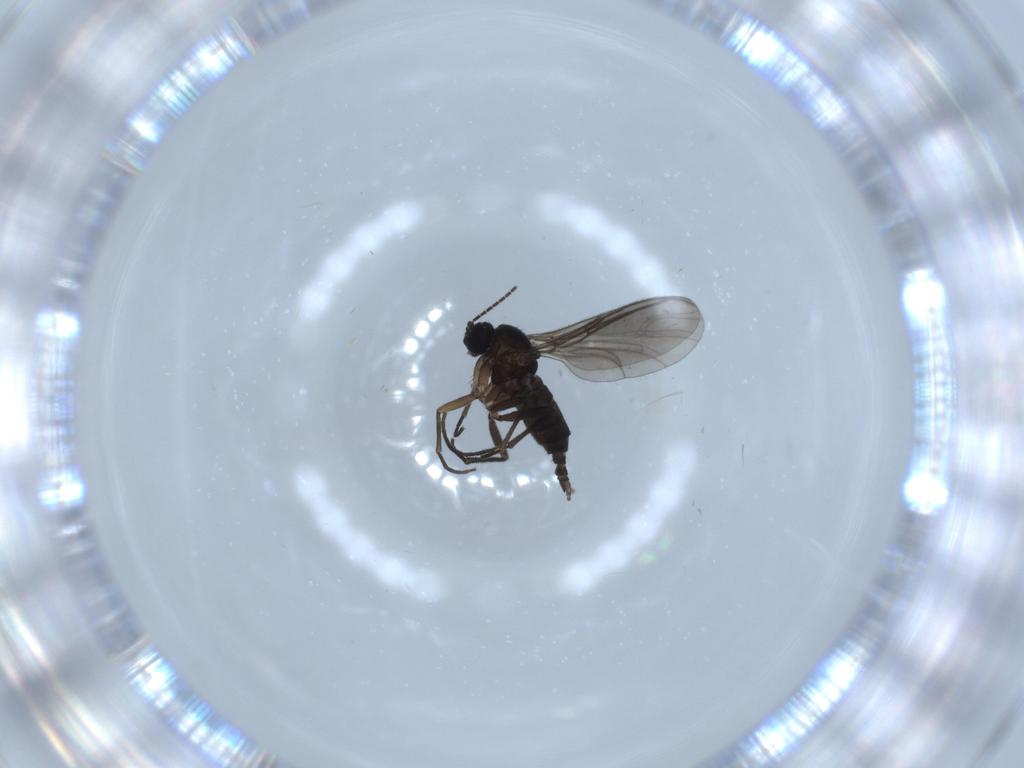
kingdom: Animalia
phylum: Arthropoda
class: Insecta
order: Diptera
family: Sciaridae
